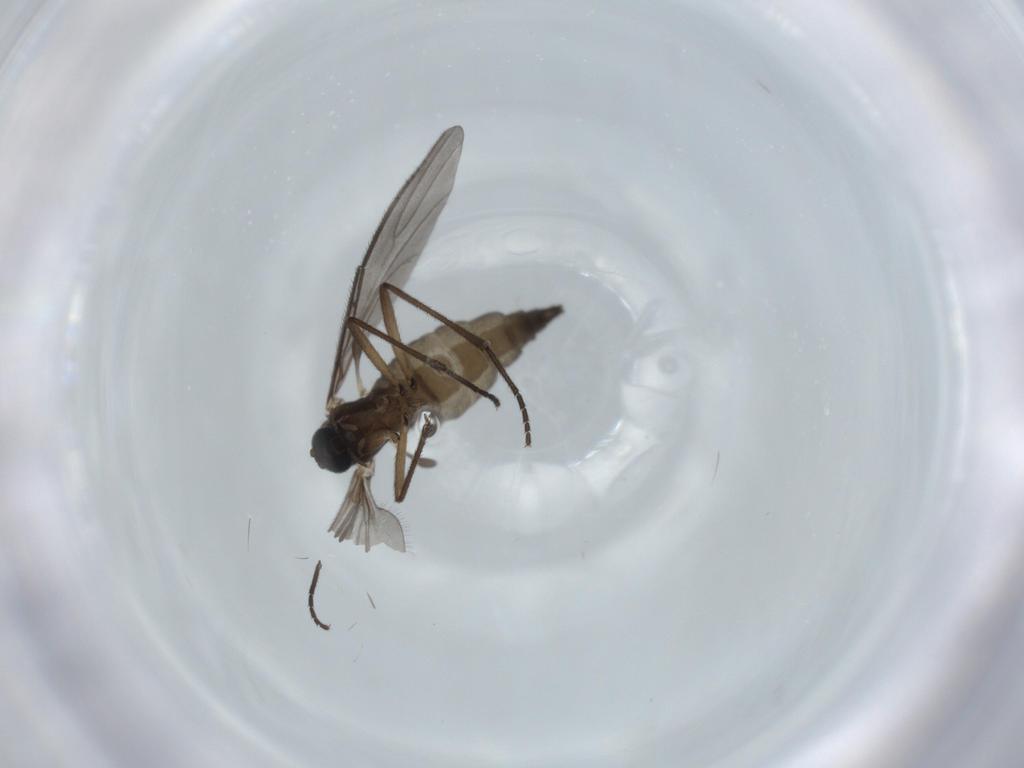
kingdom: Animalia
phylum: Arthropoda
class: Insecta
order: Diptera
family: Sciaridae
